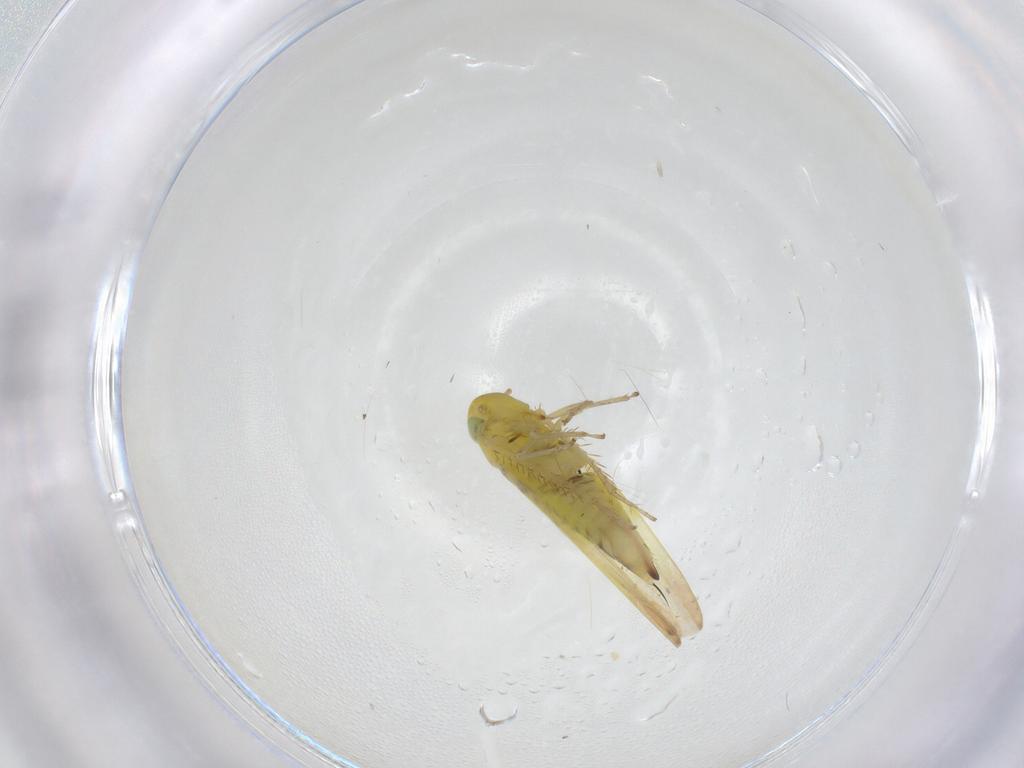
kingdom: Animalia
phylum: Arthropoda
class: Insecta
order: Hemiptera
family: Cicadellidae
